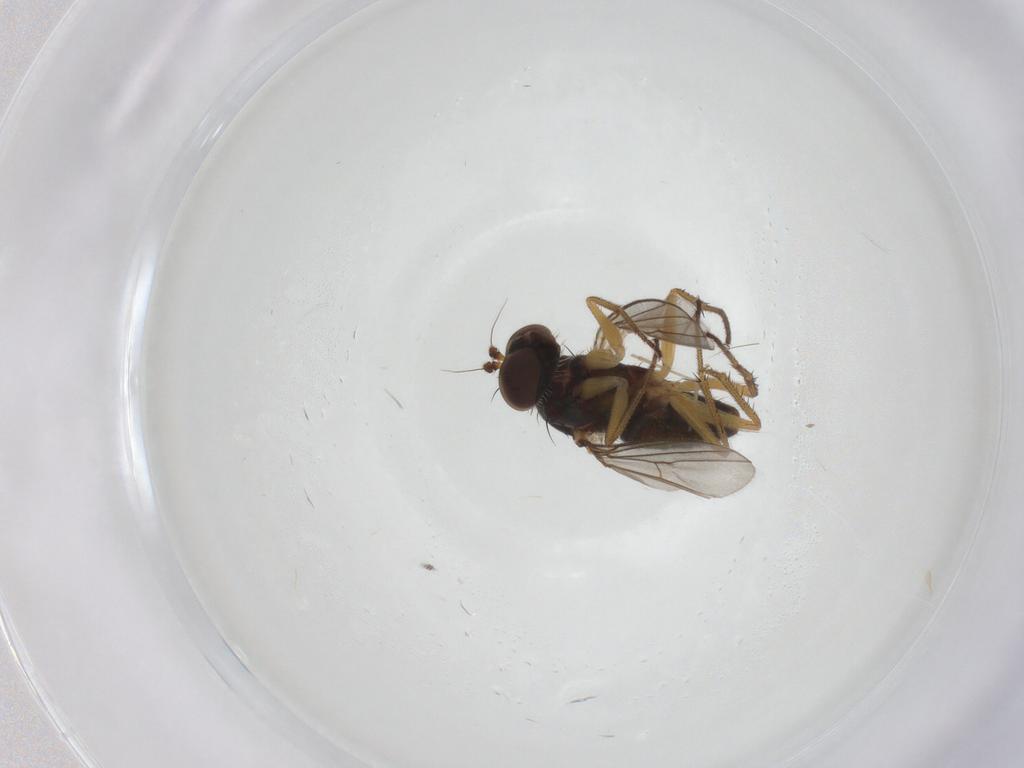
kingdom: Animalia
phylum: Arthropoda
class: Insecta
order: Diptera
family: Cecidomyiidae
